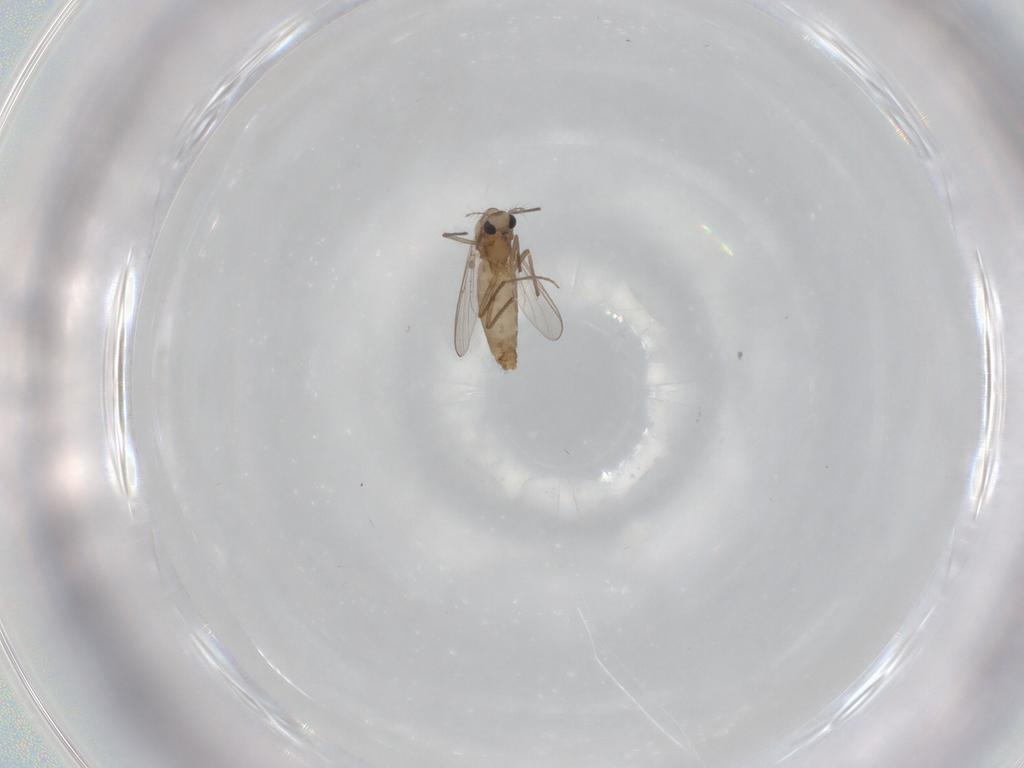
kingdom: Animalia
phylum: Arthropoda
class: Insecta
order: Diptera
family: Chironomidae
